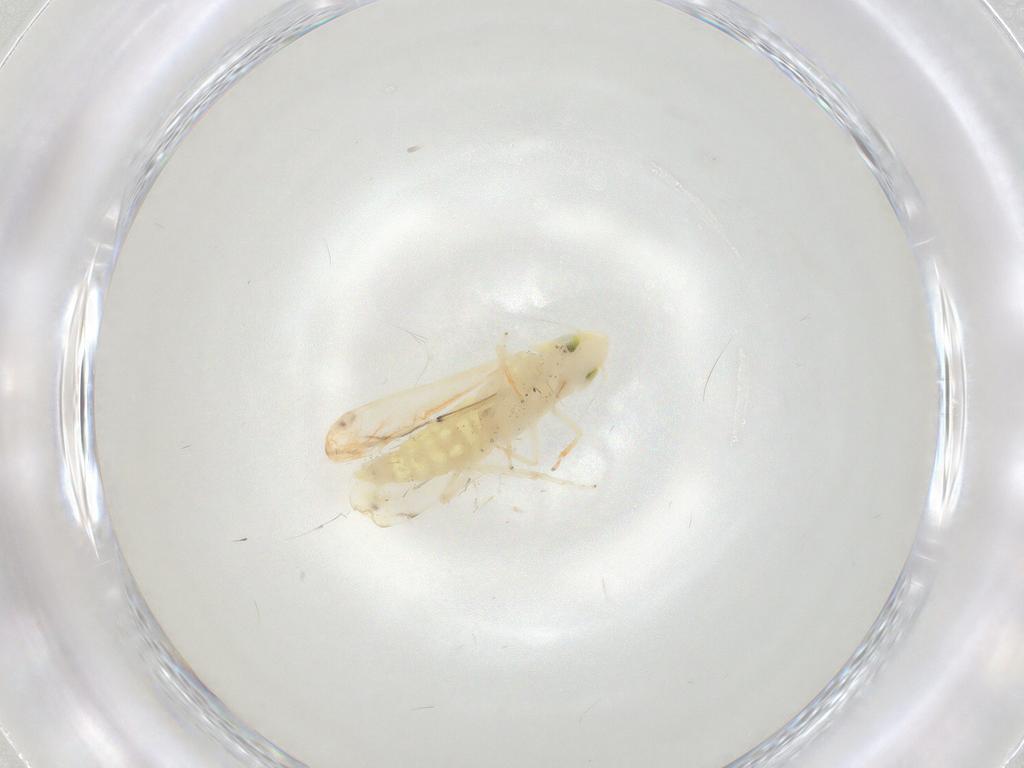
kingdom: Animalia
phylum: Arthropoda
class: Insecta
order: Hemiptera
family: Cicadellidae
